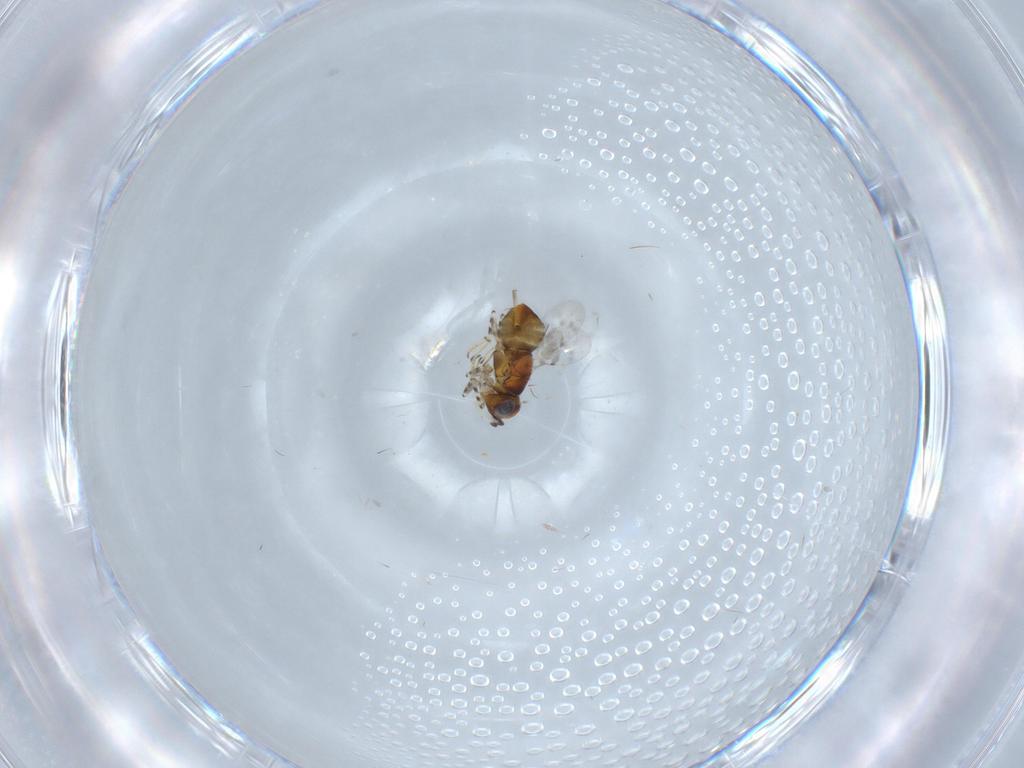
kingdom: Animalia
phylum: Arthropoda
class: Insecta
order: Hymenoptera
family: Encyrtidae
